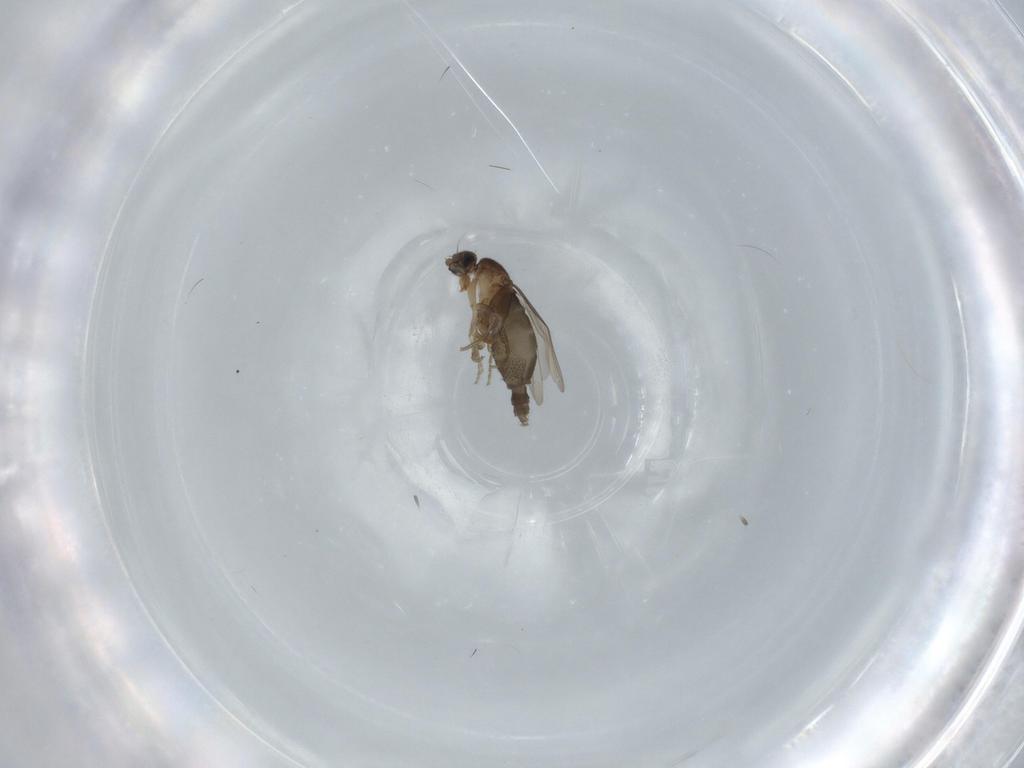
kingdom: Animalia
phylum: Arthropoda
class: Insecta
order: Diptera
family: Phoridae
